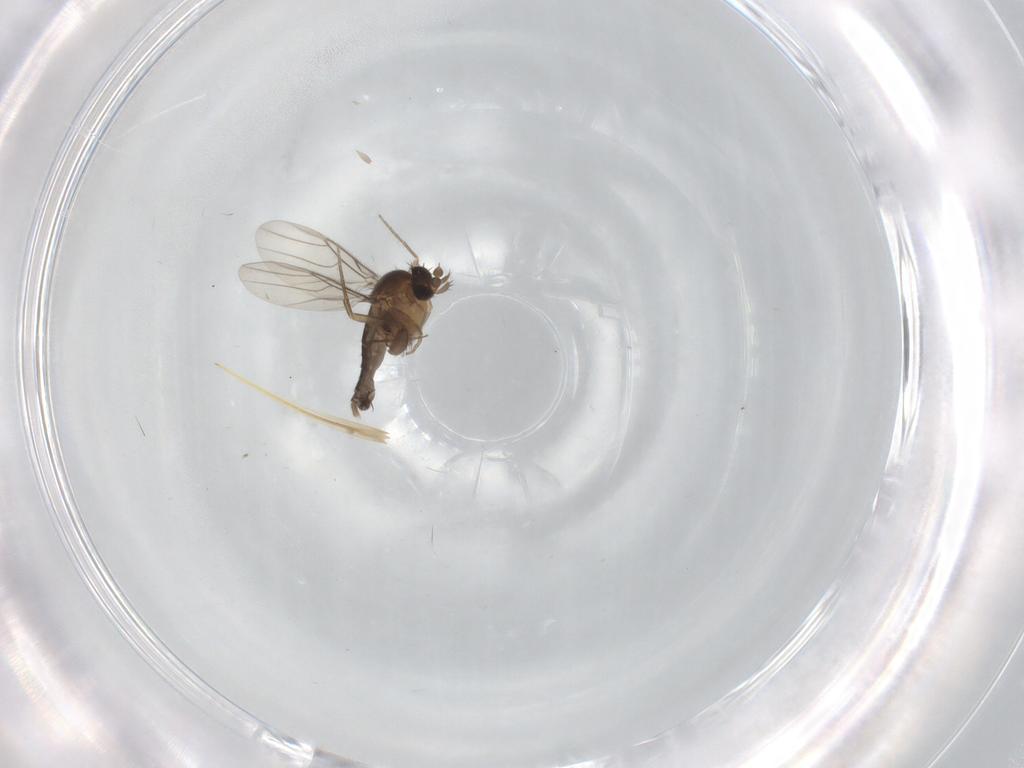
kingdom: Animalia
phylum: Arthropoda
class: Insecta
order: Diptera
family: Phoridae
